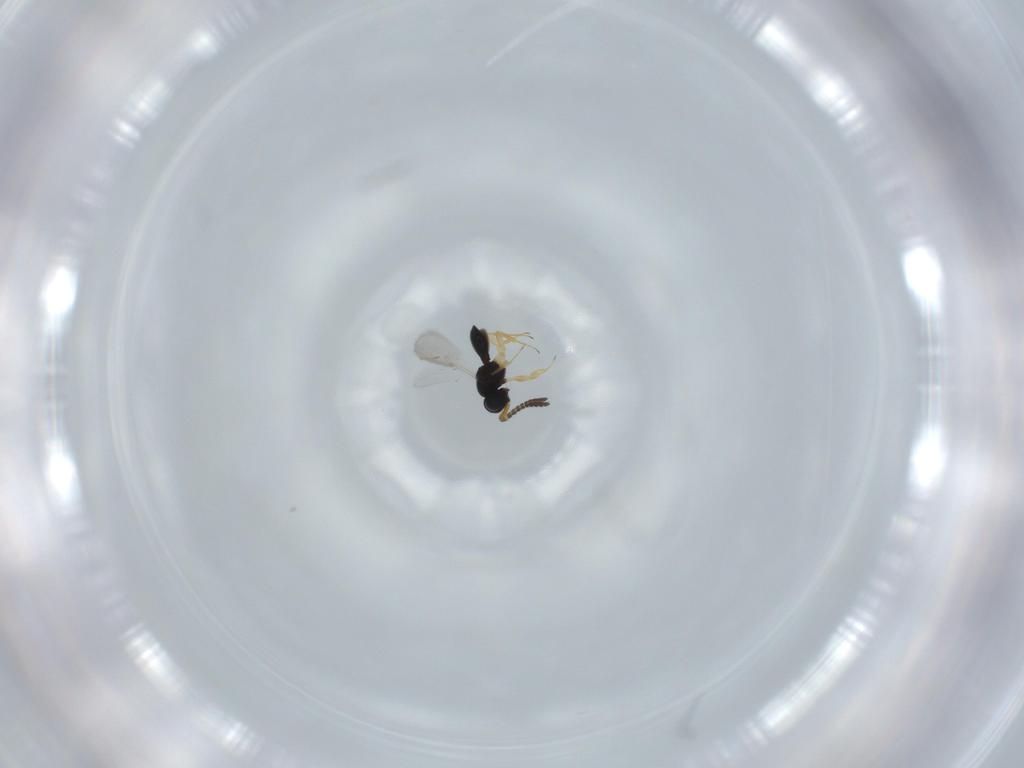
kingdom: Animalia
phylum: Arthropoda
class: Insecta
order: Hymenoptera
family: Scelionidae
